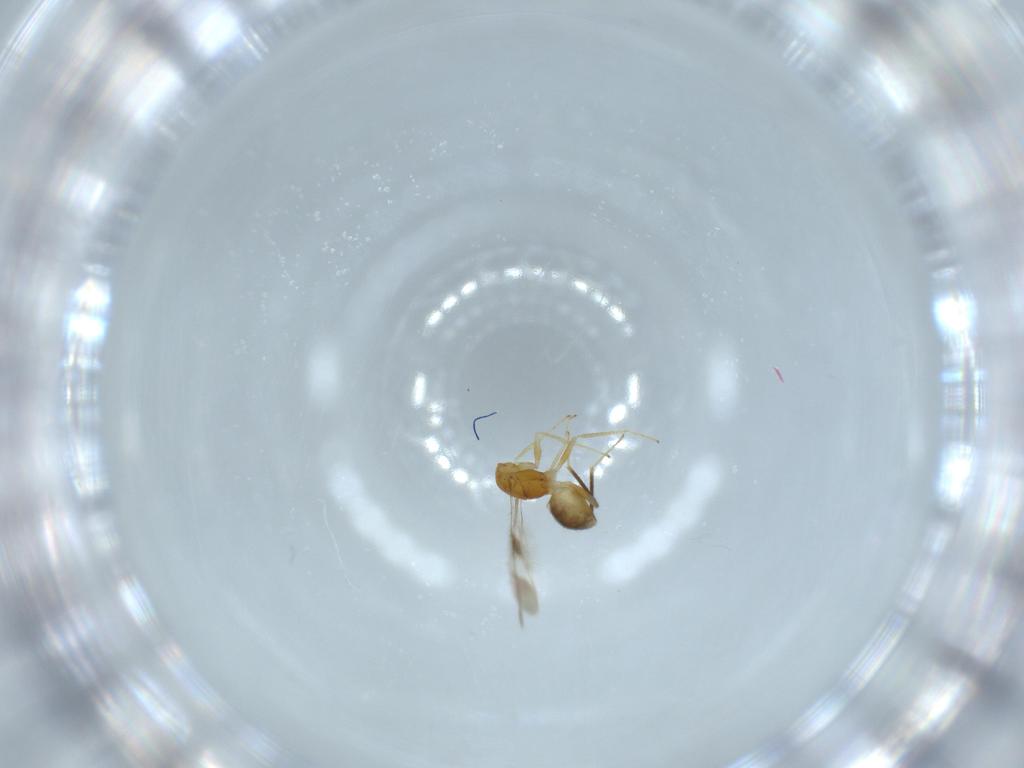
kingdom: Animalia
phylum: Arthropoda
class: Insecta
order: Hymenoptera
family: Mymaridae
